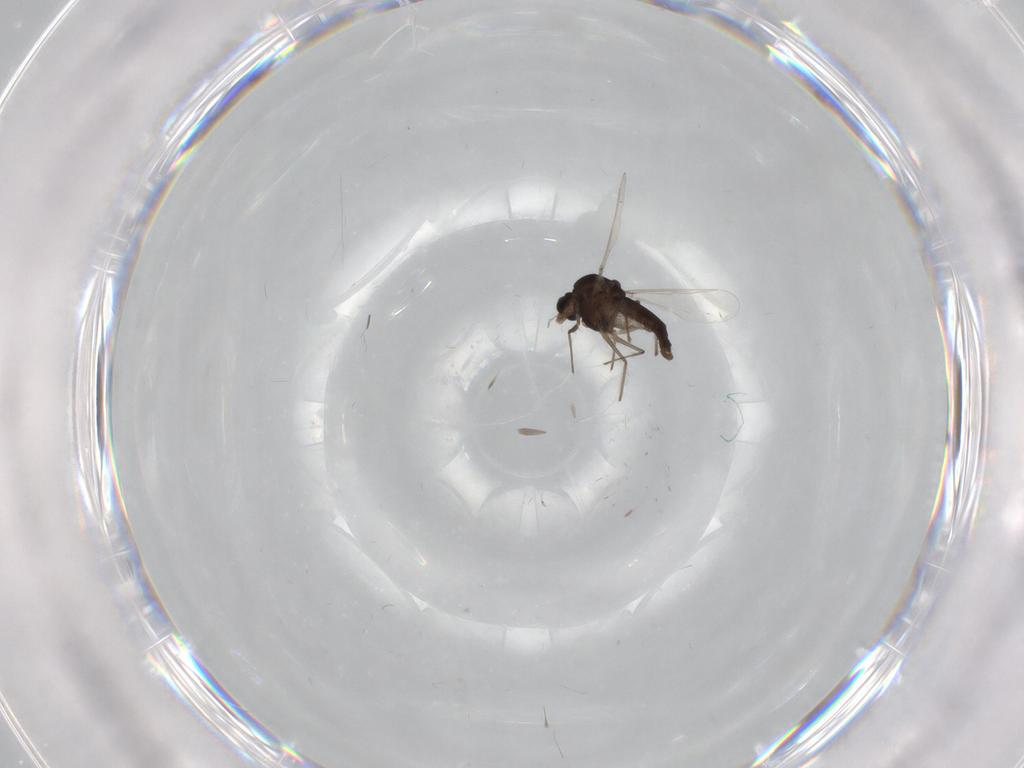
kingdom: Animalia
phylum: Arthropoda
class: Insecta
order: Diptera
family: Chironomidae
